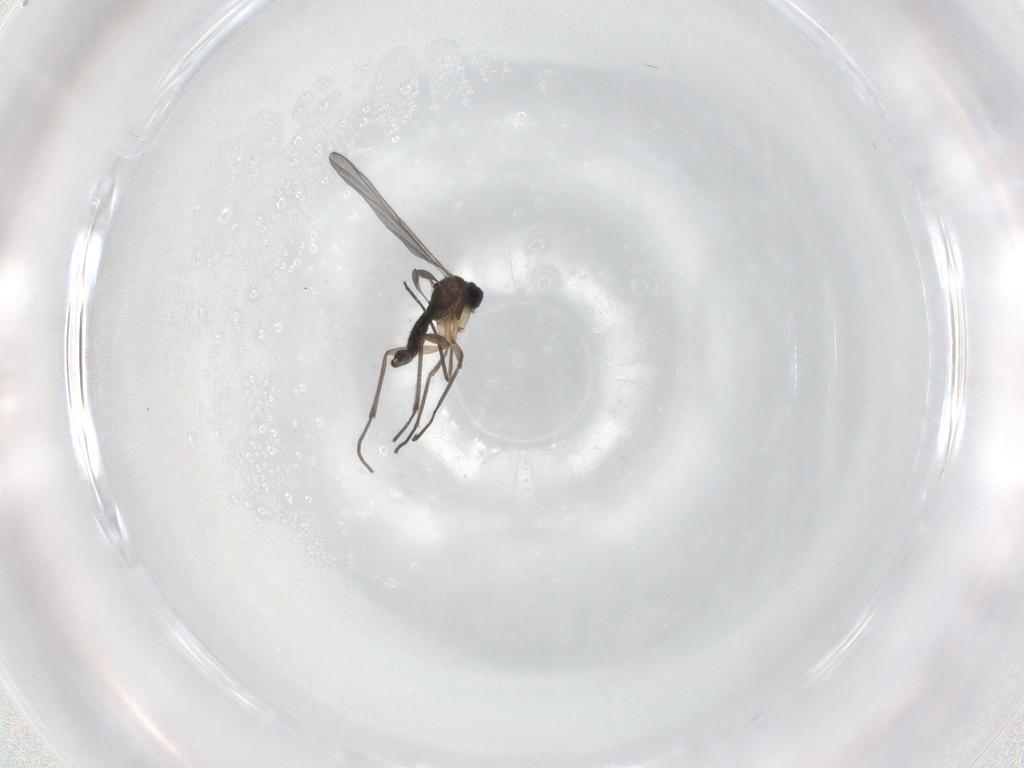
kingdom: Animalia
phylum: Arthropoda
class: Insecta
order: Diptera
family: Sciaridae
